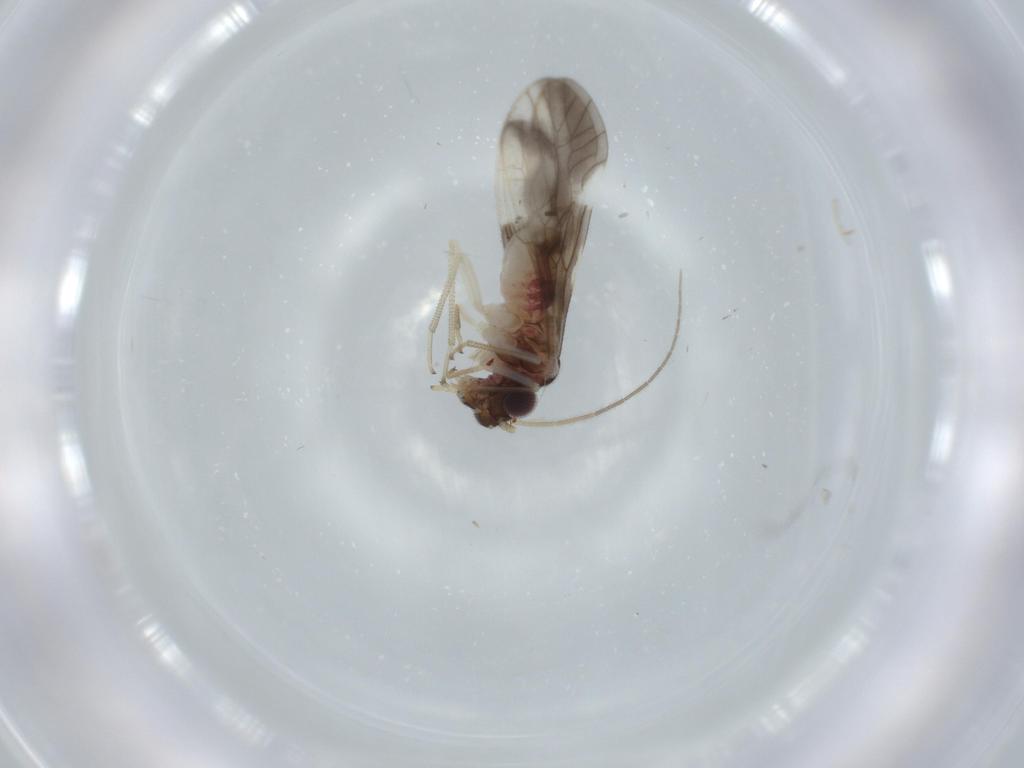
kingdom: Animalia
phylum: Arthropoda
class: Insecta
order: Psocodea
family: Caeciliusidae
